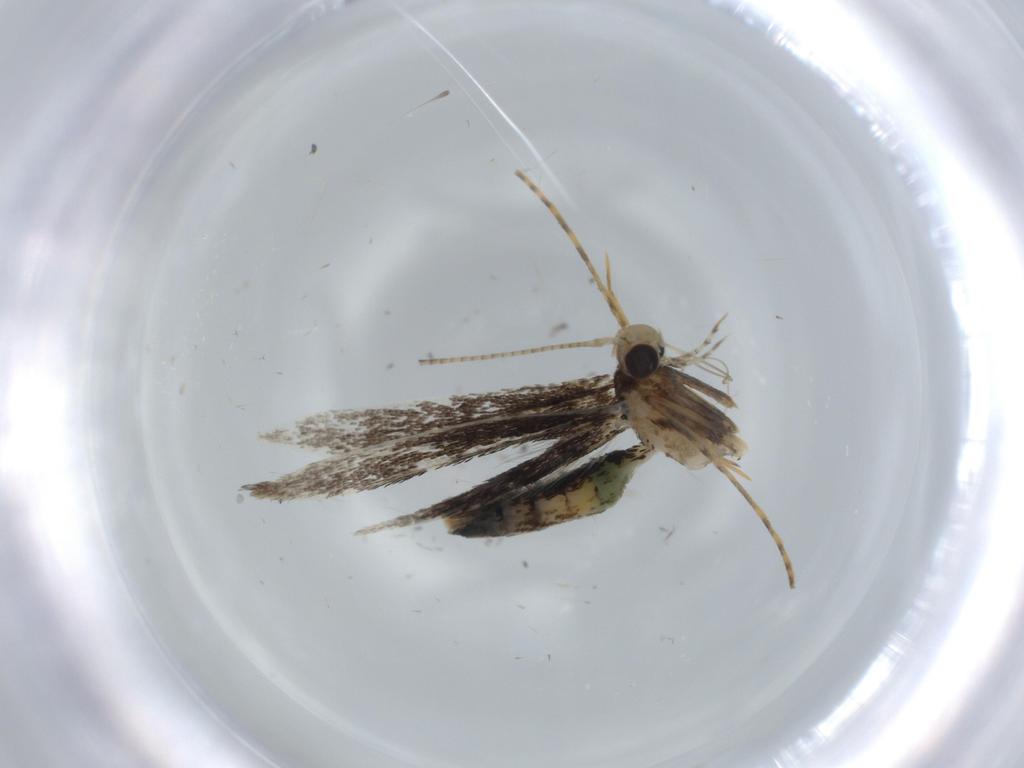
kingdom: Animalia
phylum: Arthropoda
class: Insecta
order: Lepidoptera
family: Gracillariidae
